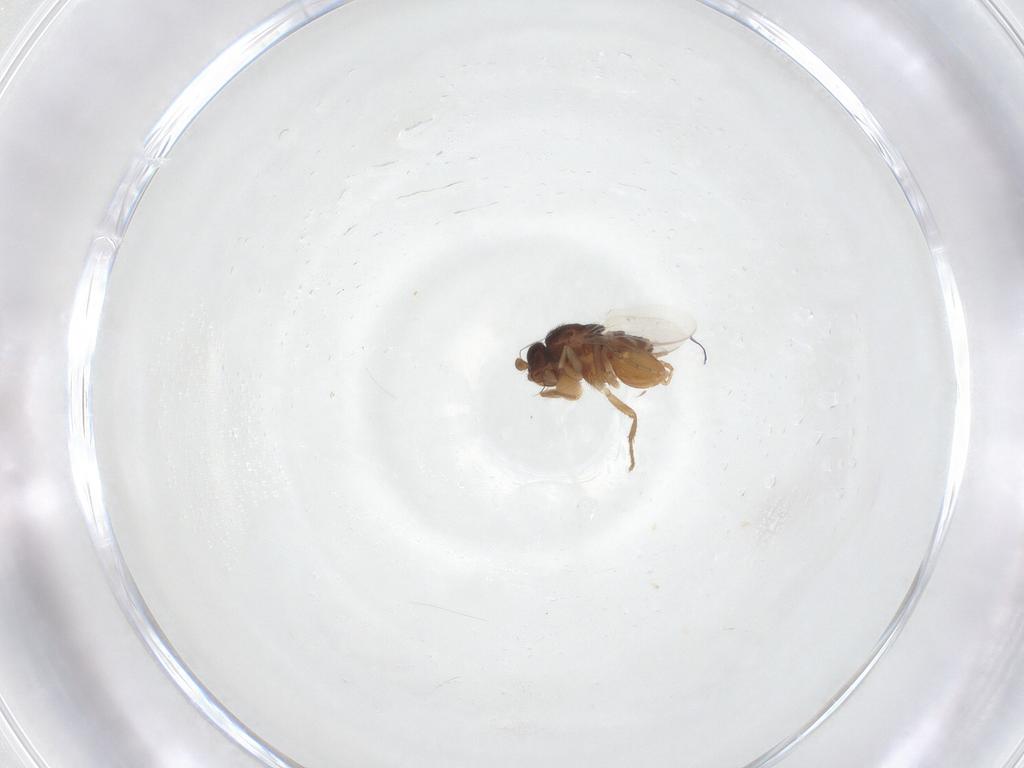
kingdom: Animalia
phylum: Arthropoda
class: Insecta
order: Diptera
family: Sphaeroceridae
